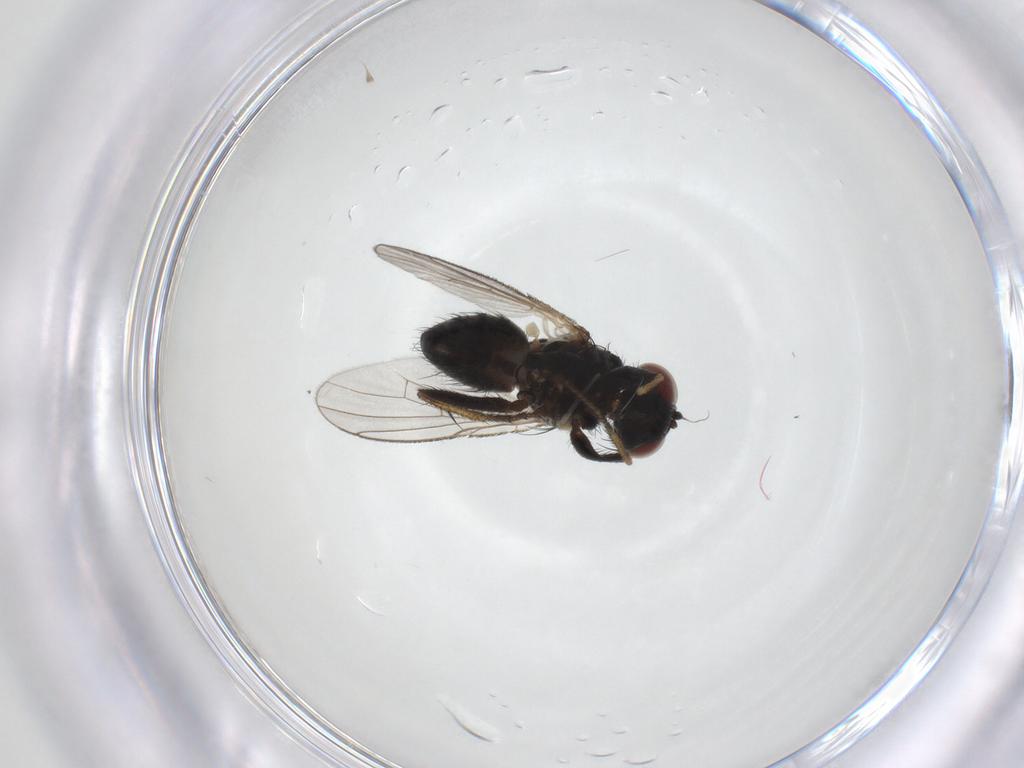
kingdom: Animalia
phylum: Arthropoda
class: Insecta
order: Diptera
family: Muscidae
